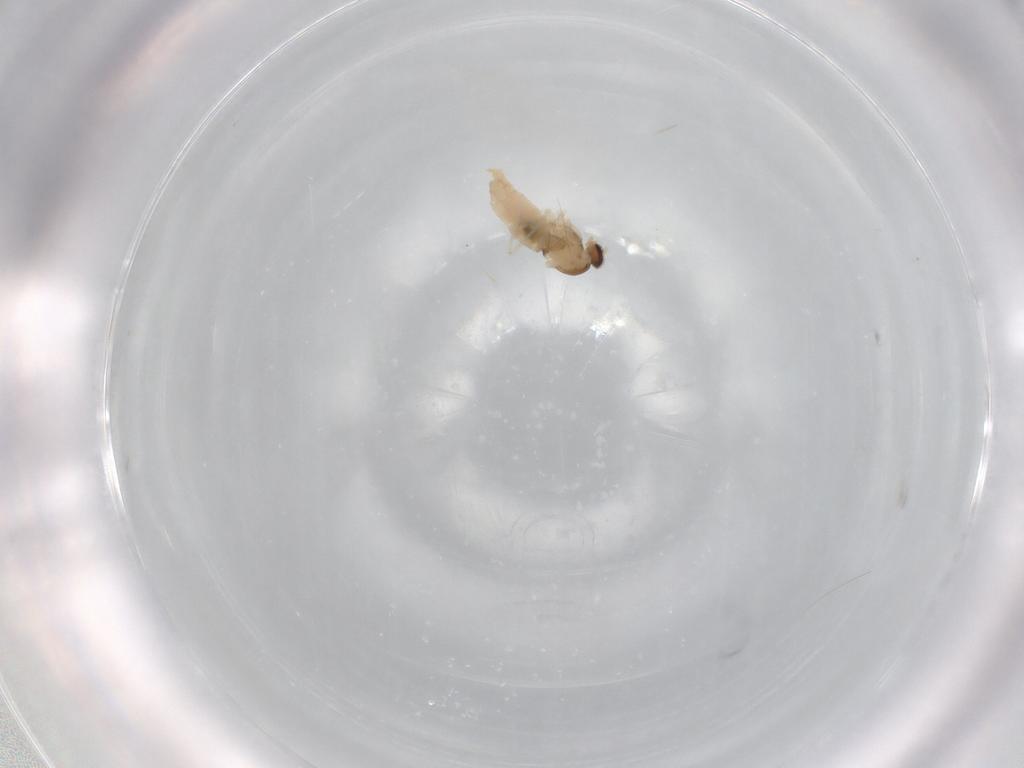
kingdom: Animalia
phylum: Arthropoda
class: Insecta
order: Diptera
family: Cecidomyiidae
